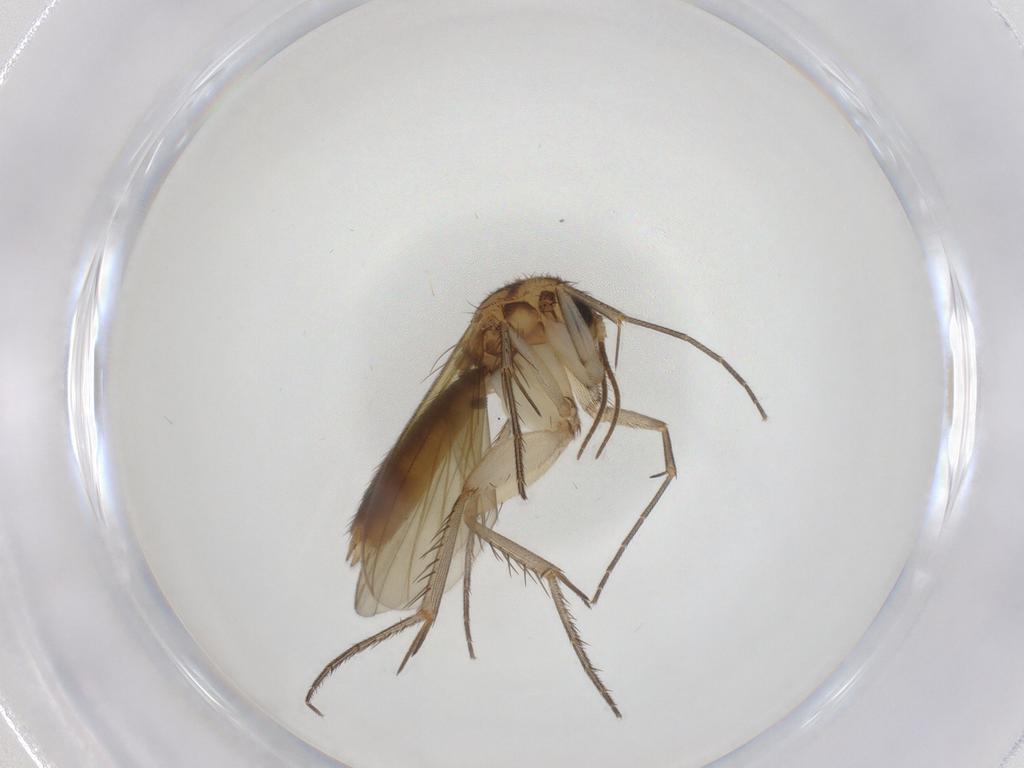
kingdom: Animalia
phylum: Arthropoda
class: Insecta
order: Diptera
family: Mycetophilidae
